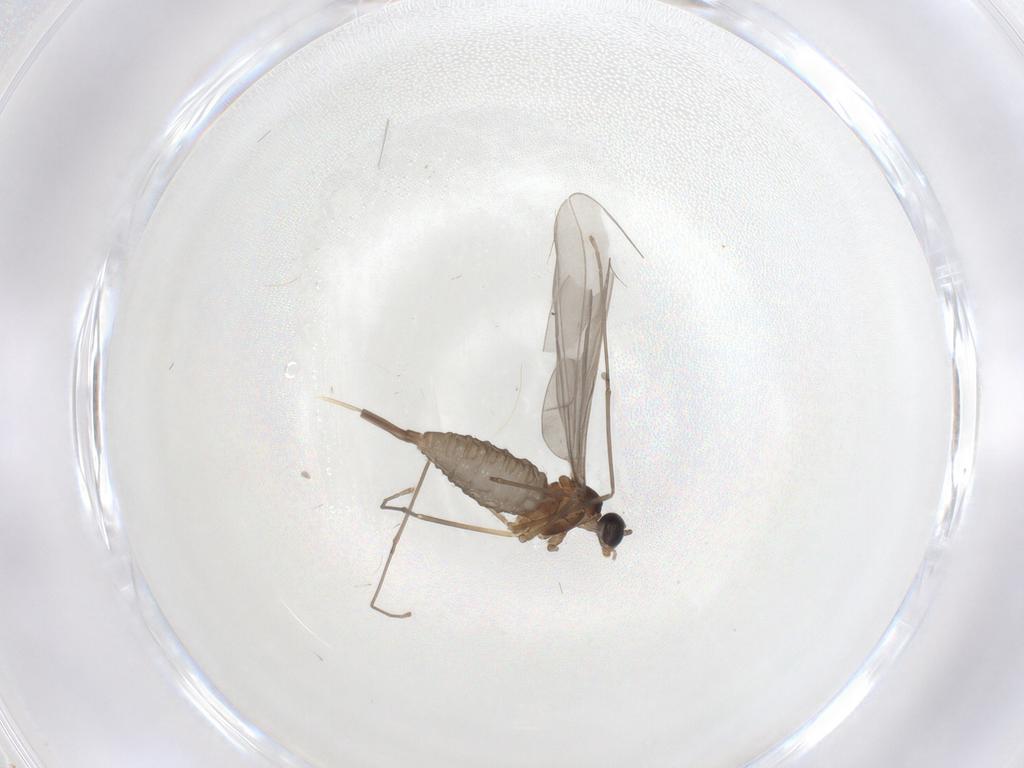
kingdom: Animalia
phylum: Arthropoda
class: Insecta
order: Diptera
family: Cecidomyiidae
